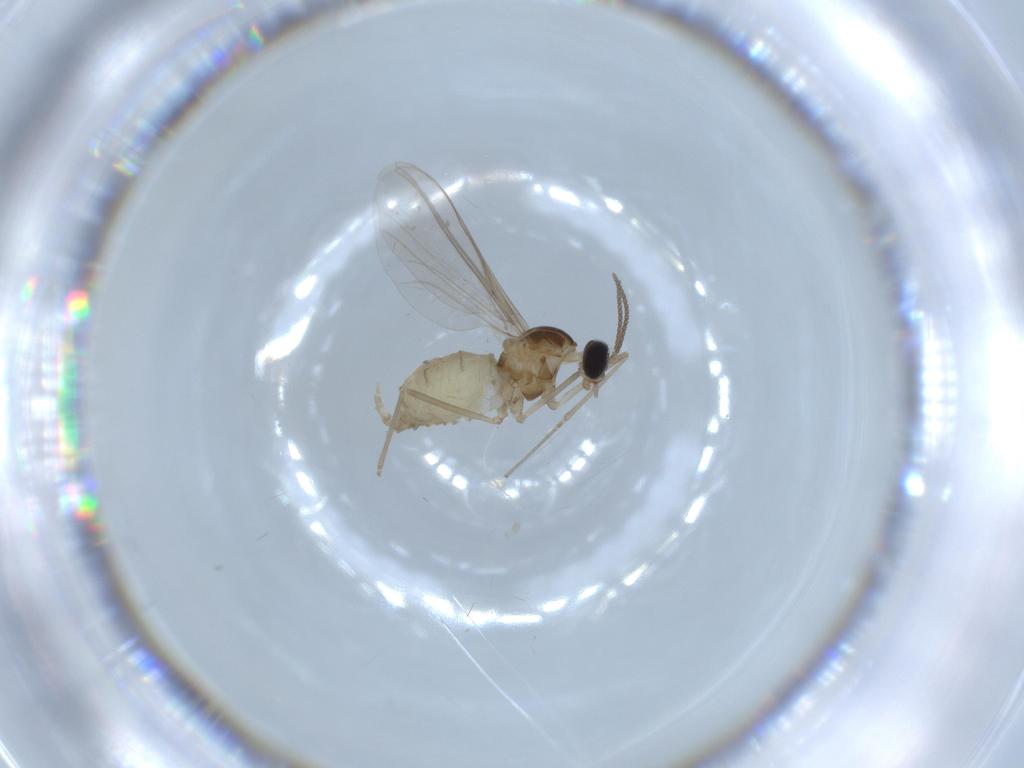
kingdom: Animalia
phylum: Arthropoda
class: Insecta
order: Diptera
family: Cecidomyiidae
